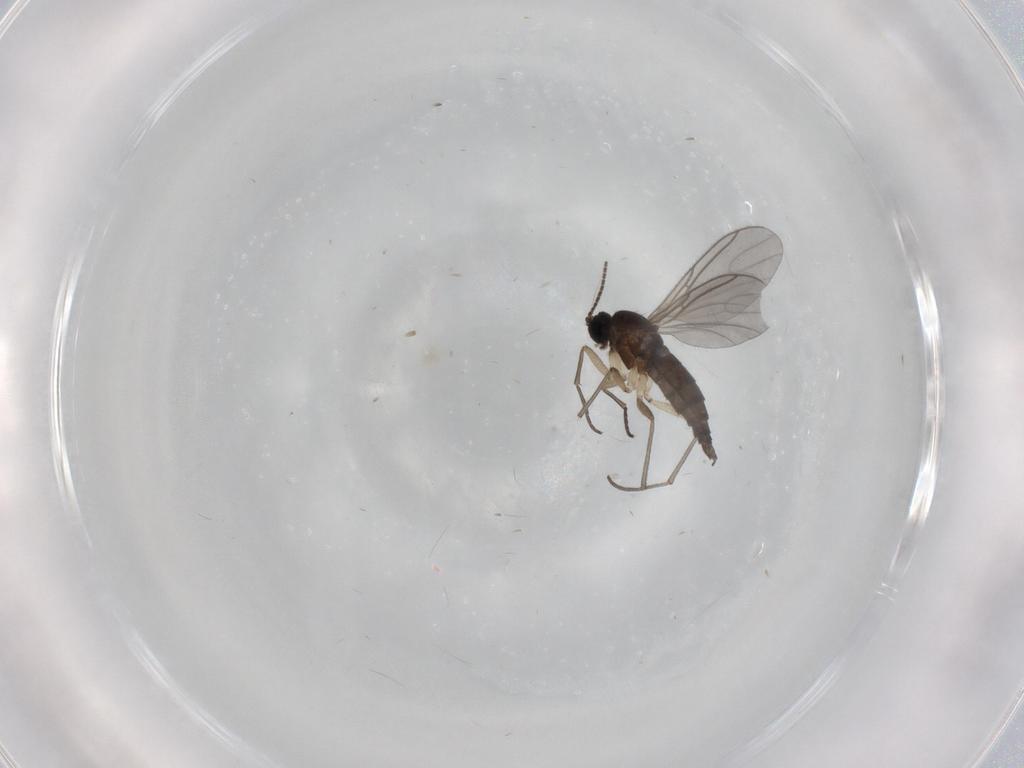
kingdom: Animalia
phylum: Arthropoda
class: Insecta
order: Diptera
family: Sciaridae
